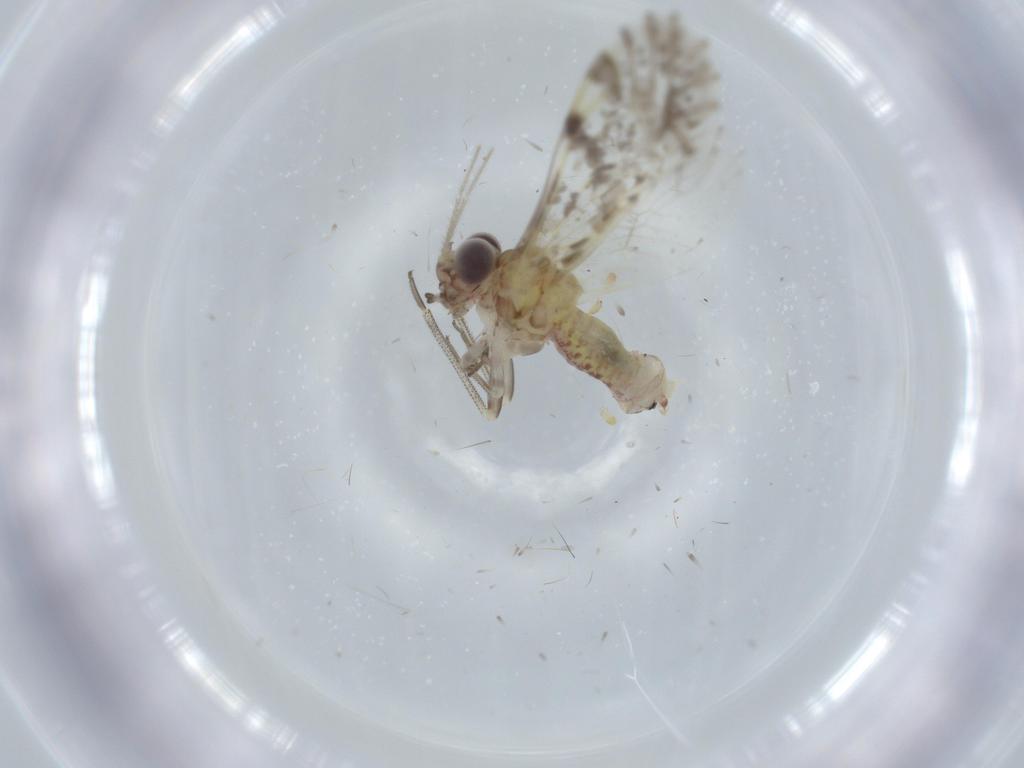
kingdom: Animalia
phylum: Arthropoda
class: Insecta
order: Psocodea
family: Psocidae
